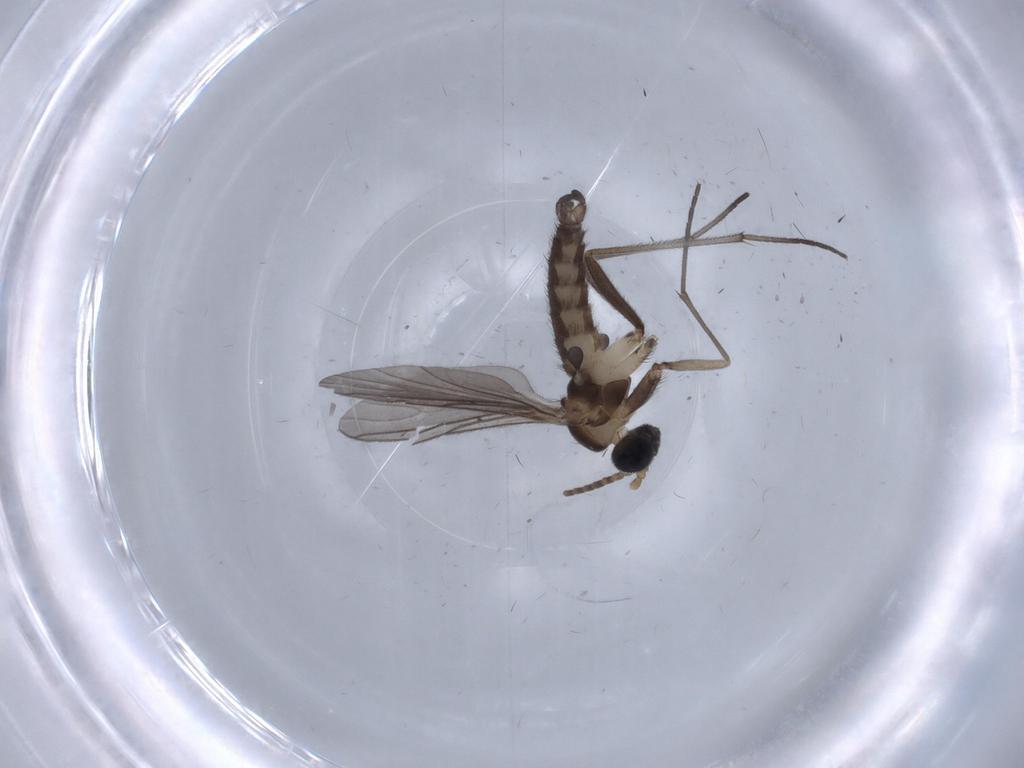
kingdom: Animalia
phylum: Arthropoda
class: Insecta
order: Diptera
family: Sciaridae
